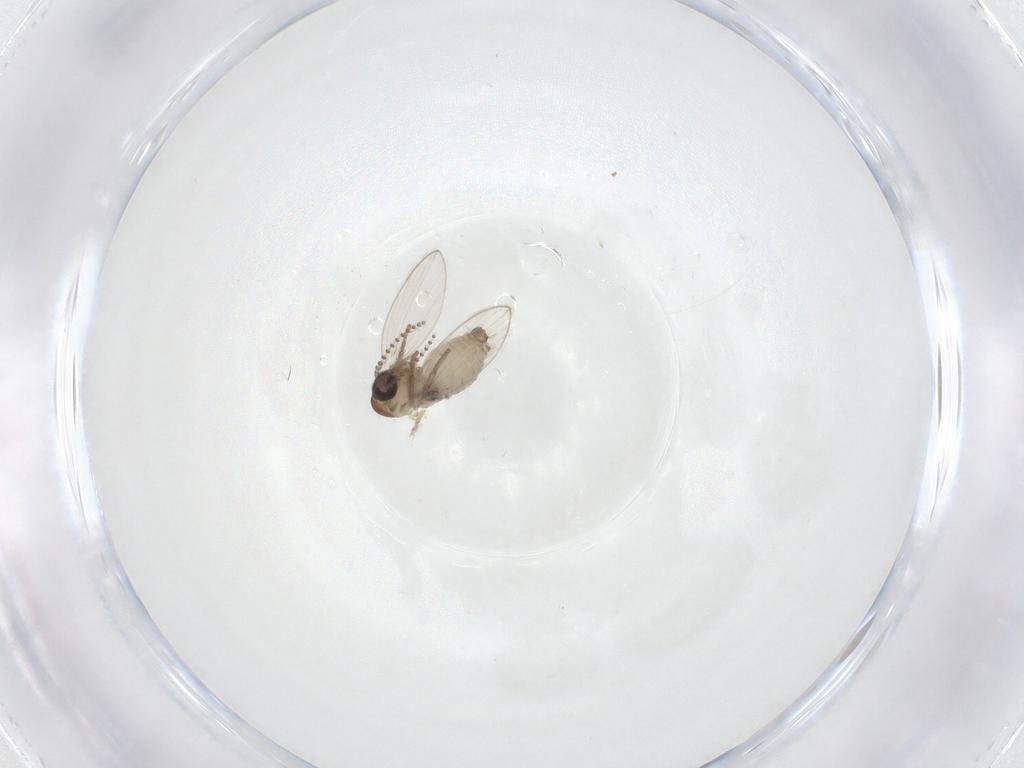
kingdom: Animalia
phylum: Arthropoda
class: Insecta
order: Diptera
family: Psychodidae
